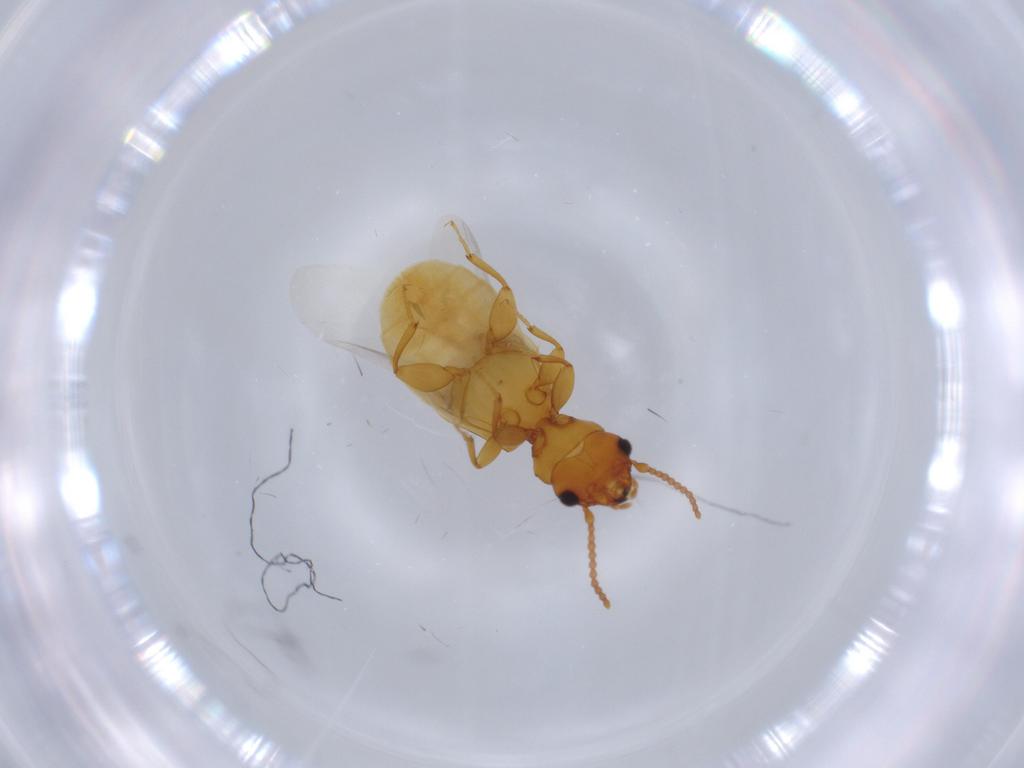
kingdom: Animalia
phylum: Arthropoda
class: Insecta
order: Coleoptera
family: Salpingidae
